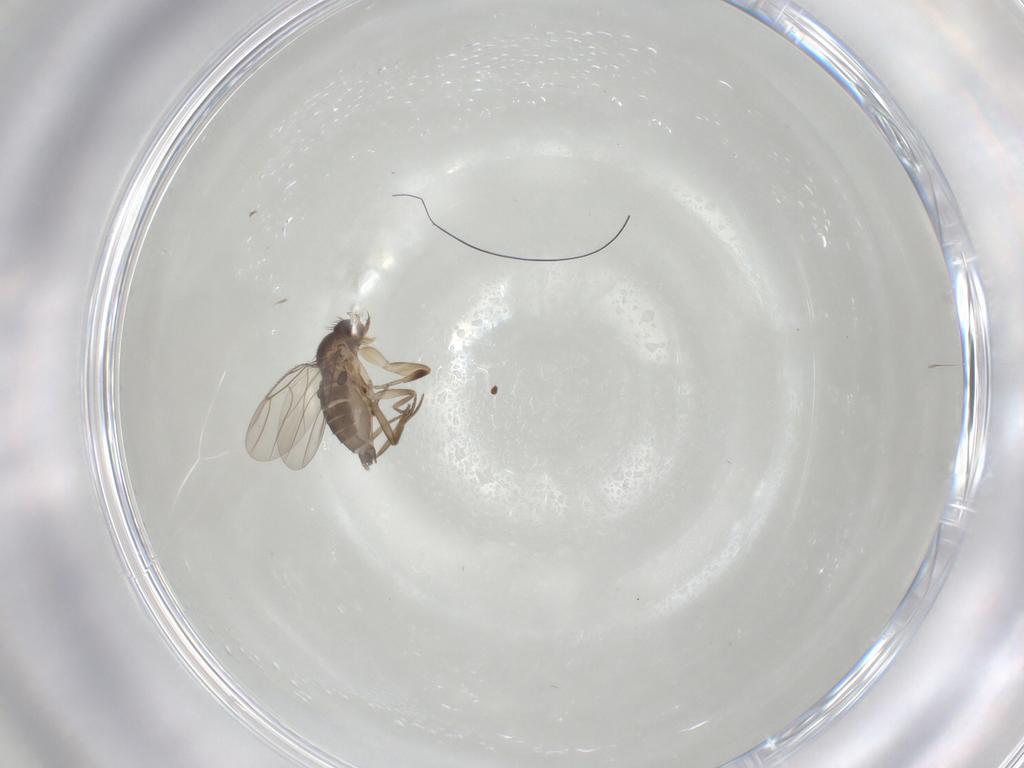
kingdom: Animalia
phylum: Arthropoda
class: Insecta
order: Diptera
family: Phoridae
